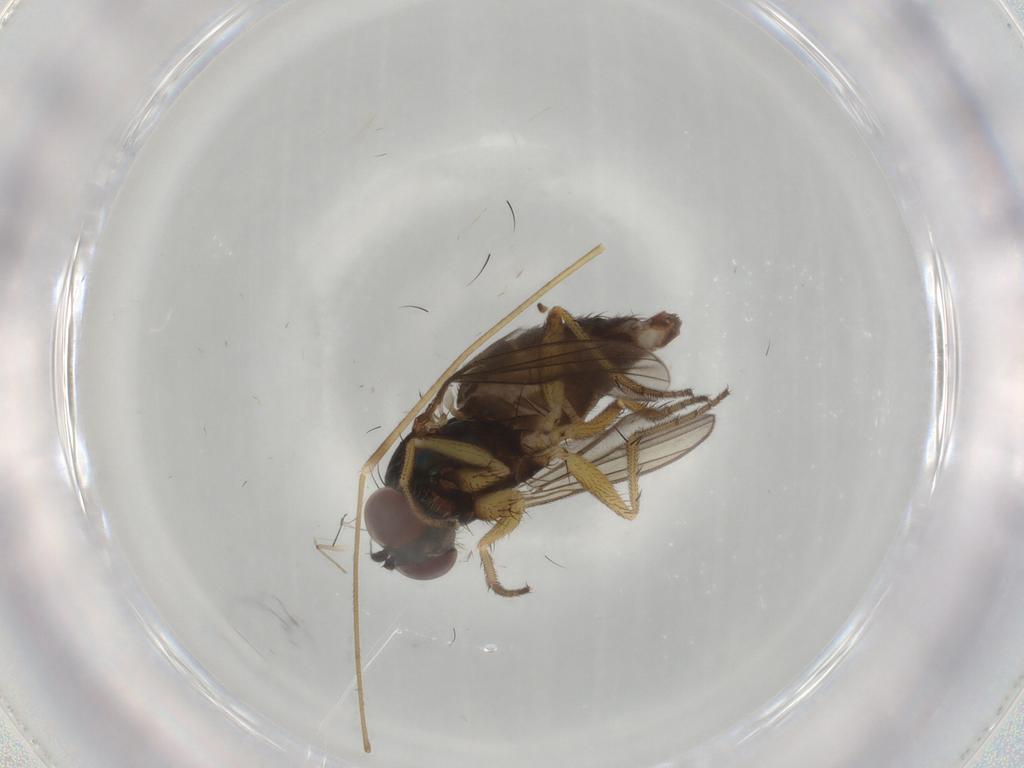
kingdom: Animalia
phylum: Arthropoda
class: Insecta
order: Diptera
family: Dolichopodidae
